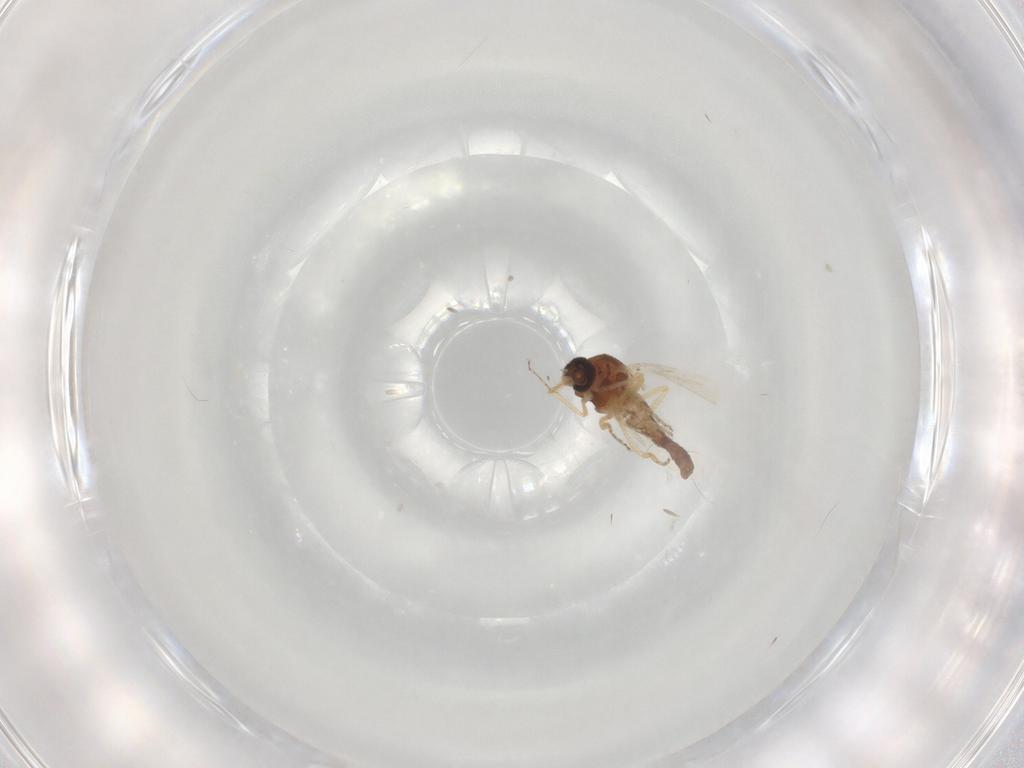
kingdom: Animalia
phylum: Arthropoda
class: Insecta
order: Diptera
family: Ceratopogonidae
